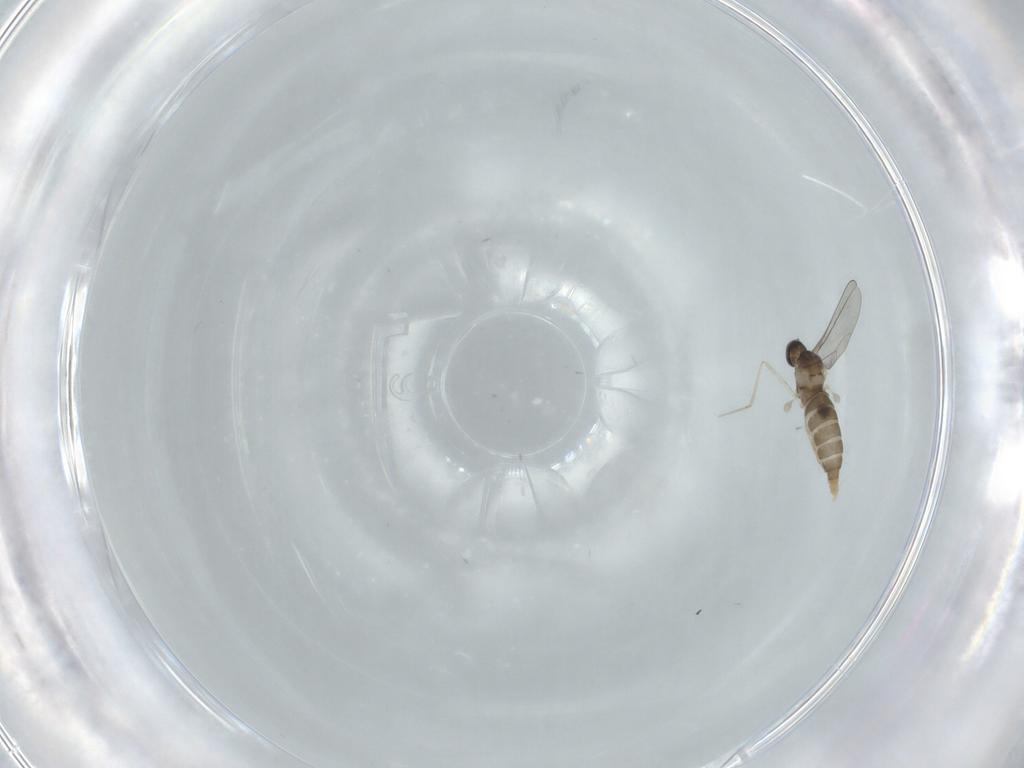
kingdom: Animalia
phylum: Arthropoda
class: Insecta
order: Diptera
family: Cecidomyiidae
